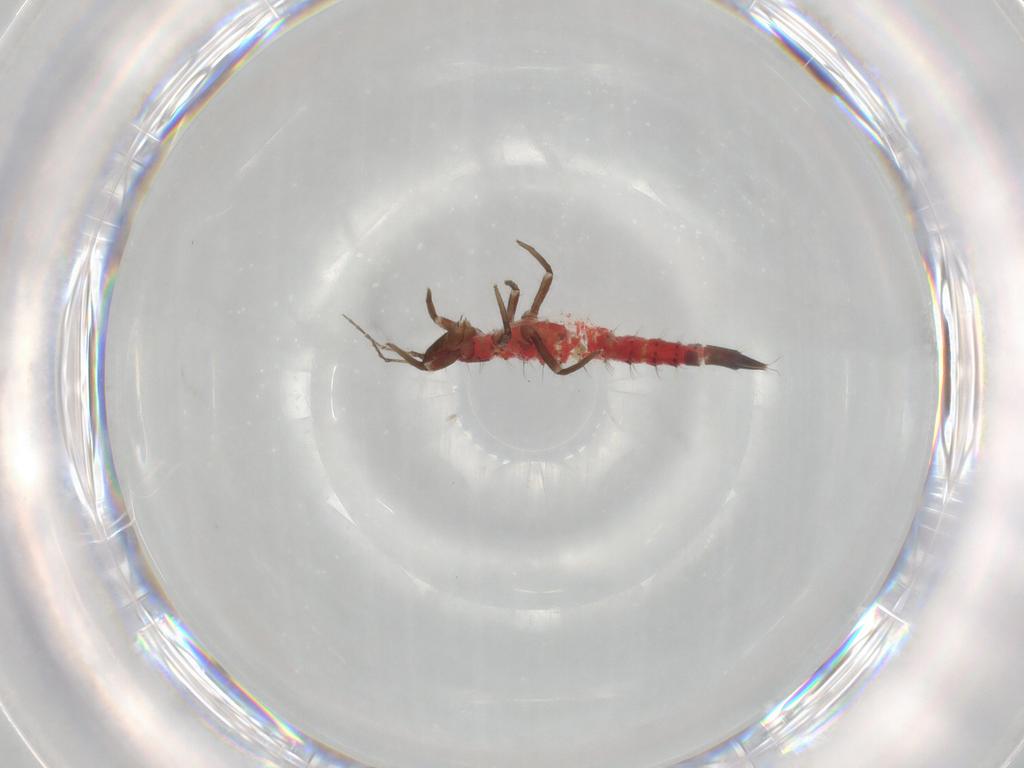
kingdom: Animalia
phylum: Arthropoda
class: Insecta
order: Thysanoptera
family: Phlaeothripidae
